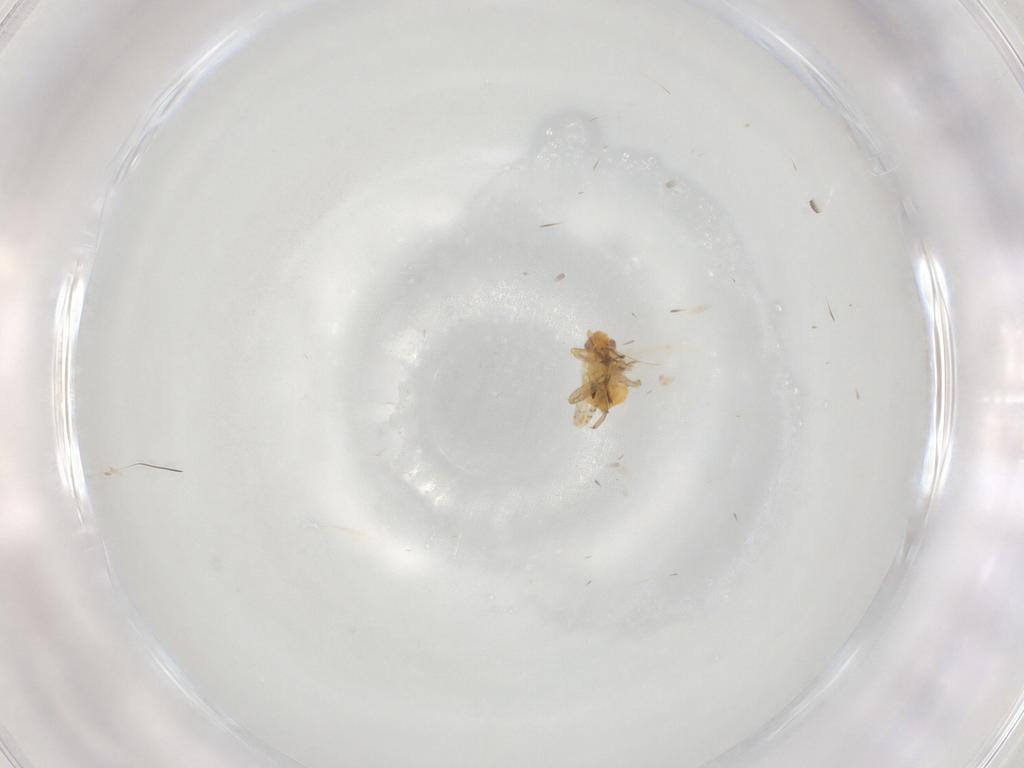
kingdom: Animalia
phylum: Arthropoda
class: Insecta
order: Hemiptera
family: Miridae
